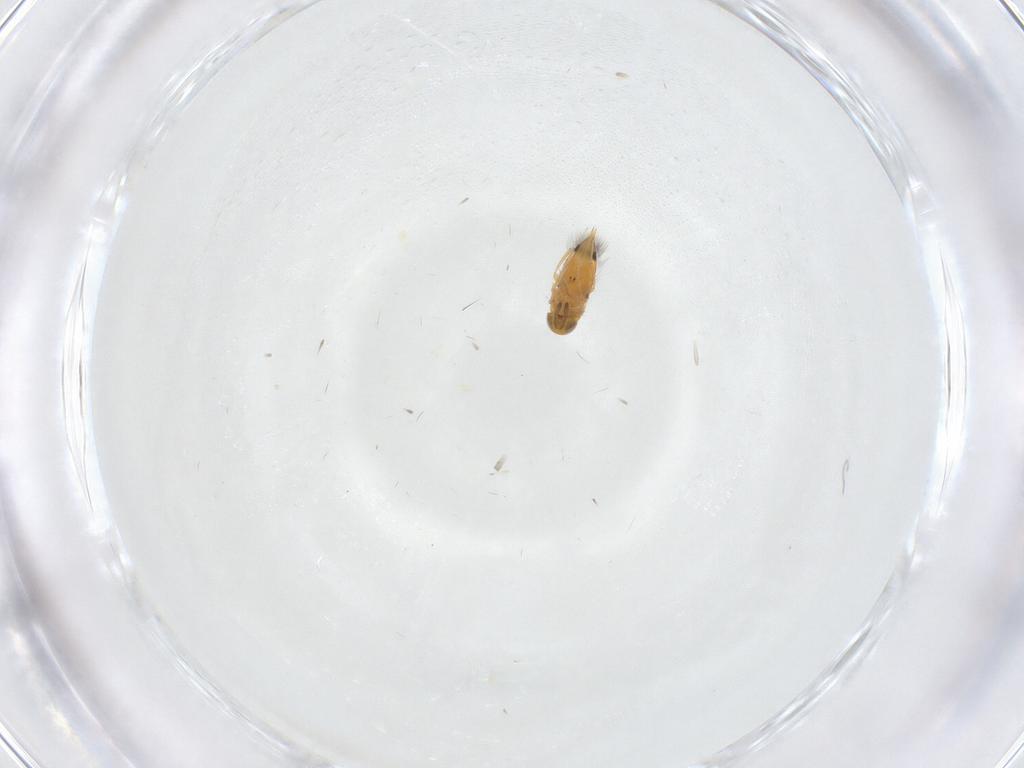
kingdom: Animalia
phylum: Arthropoda
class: Insecta
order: Hymenoptera
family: Signiphoridae
